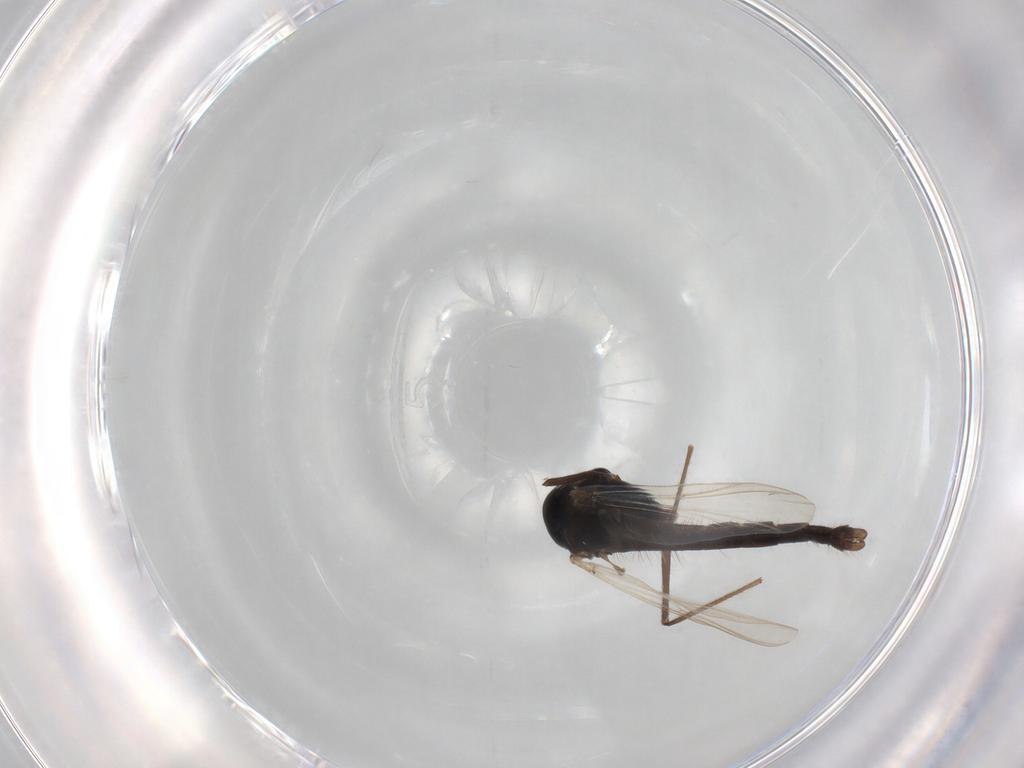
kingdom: Animalia
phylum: Arthropoda
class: Insecta
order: Diptera
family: Chironomidae
